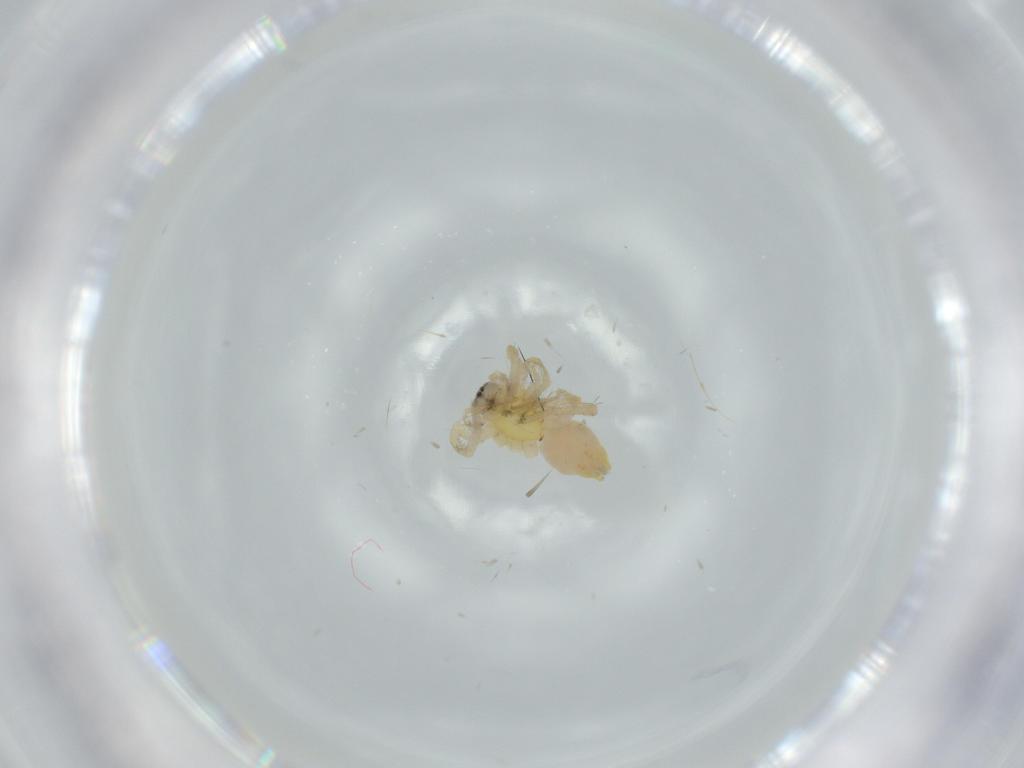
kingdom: Animalia
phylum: Arthropoda
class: Arachnida
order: Araneae
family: Anyphaenidae
